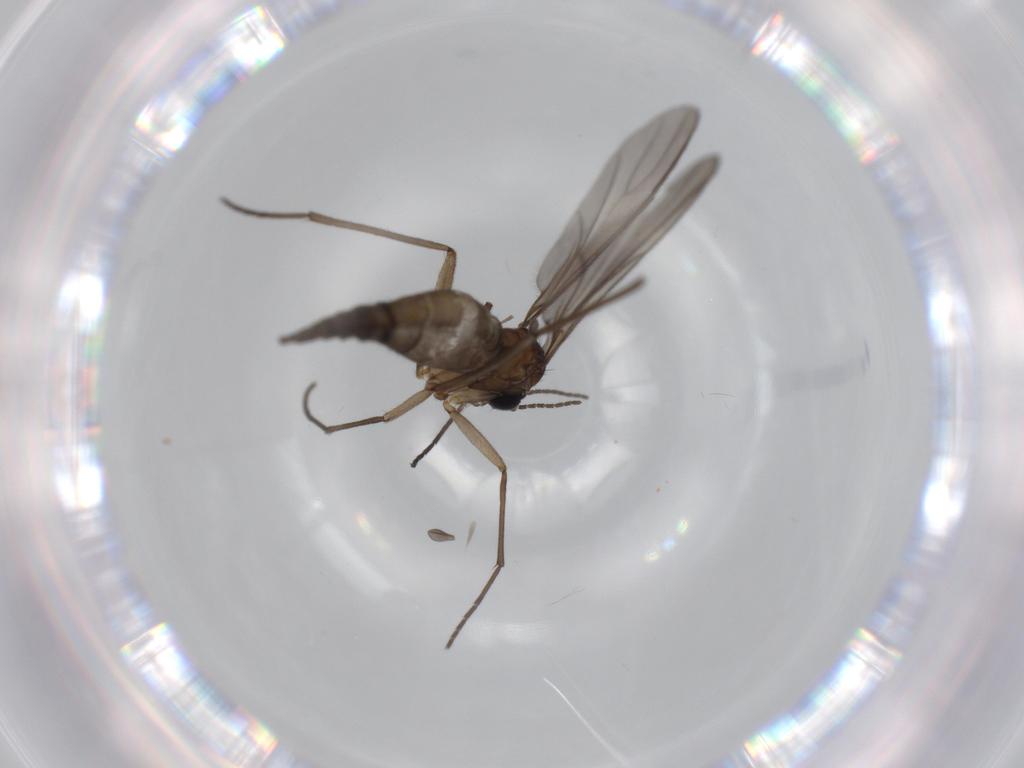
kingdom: Animalia
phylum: Arthropoda
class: Insecta
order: Diptera
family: Sciaridae
